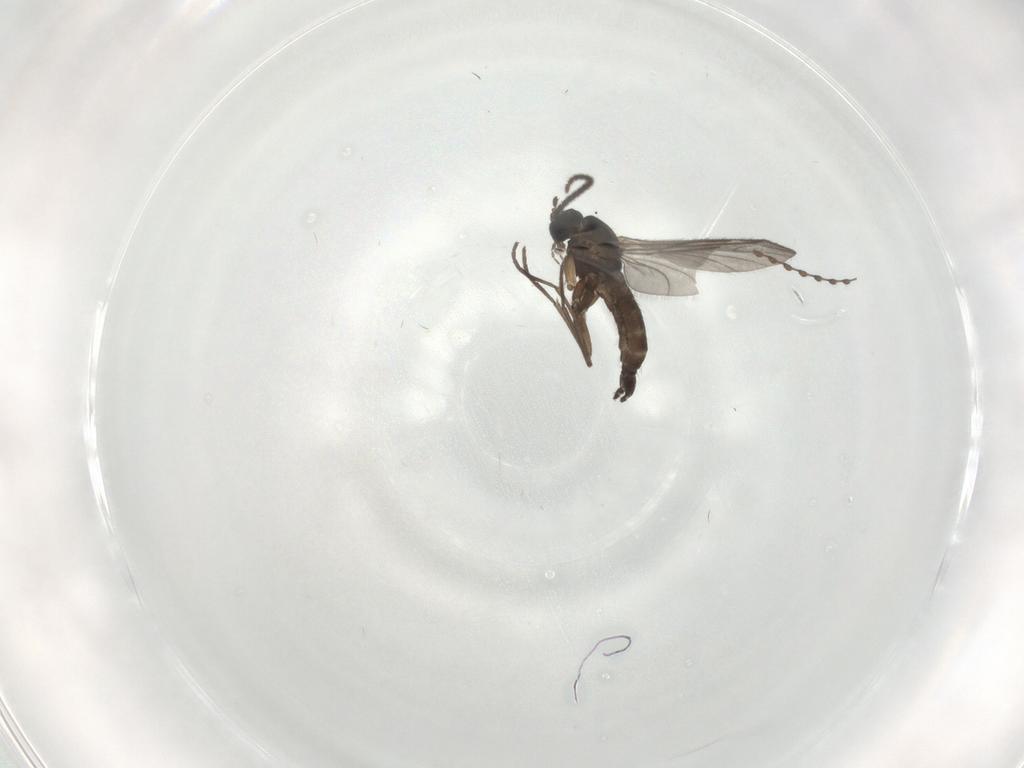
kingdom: Animalia
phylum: Arthropoda
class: Insecta
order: Diptera
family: Sciaridae
